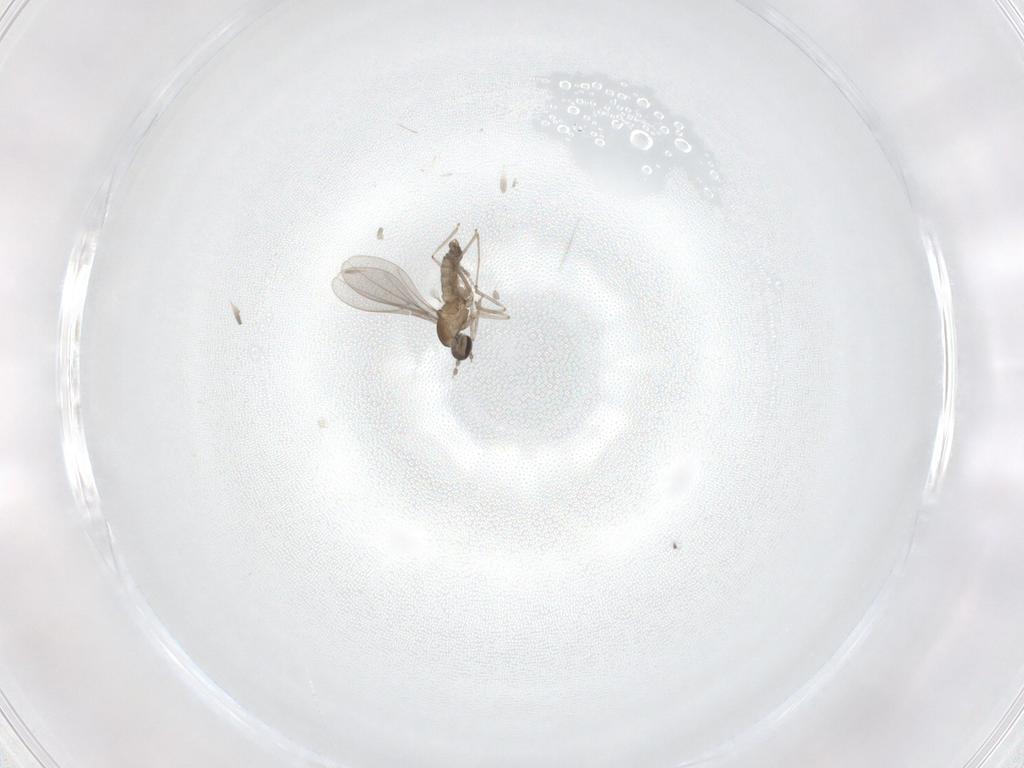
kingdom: Animalia
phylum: Arthropoda
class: Insecta
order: Diptera
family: Cecidomyiidae
